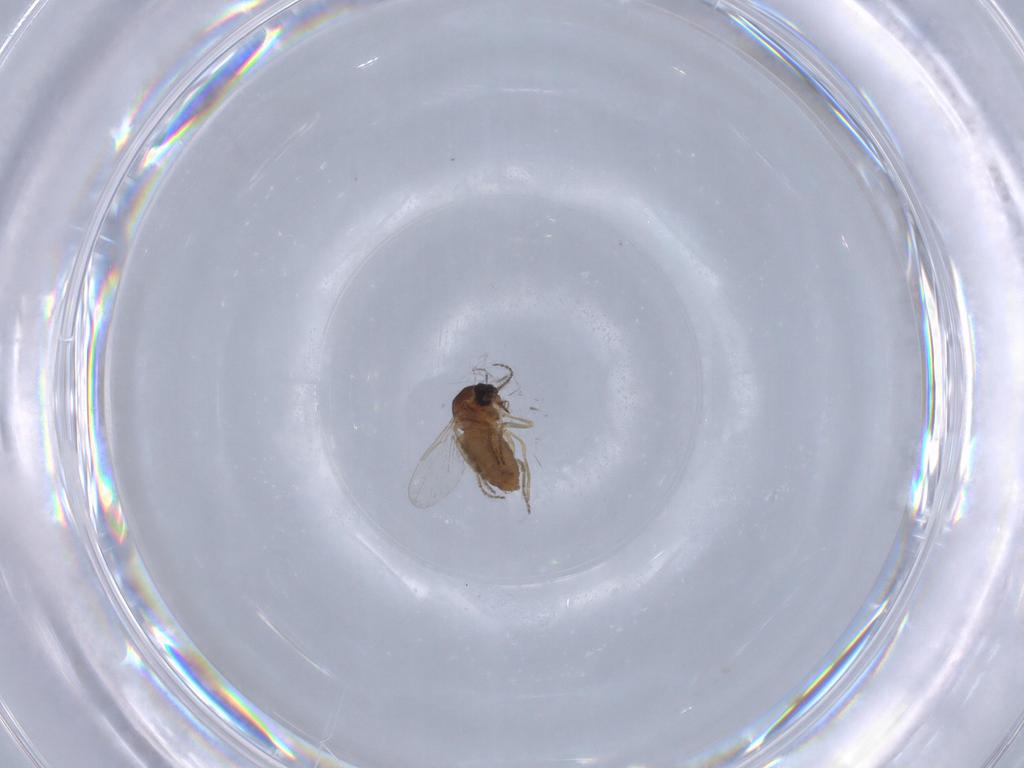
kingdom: Animalia
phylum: Arthropoda
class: Insecta
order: Diptera
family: Ceratopogonidae
